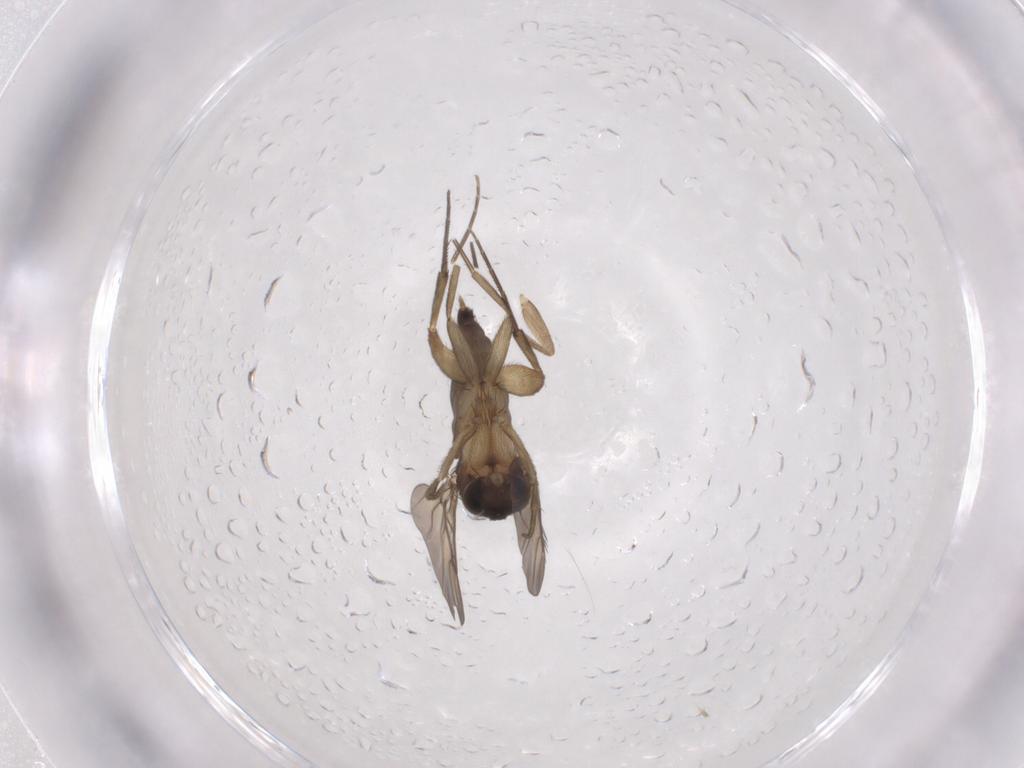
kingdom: Animalia
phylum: Arthropoda
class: Insecta
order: Diptera
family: Phoridae
